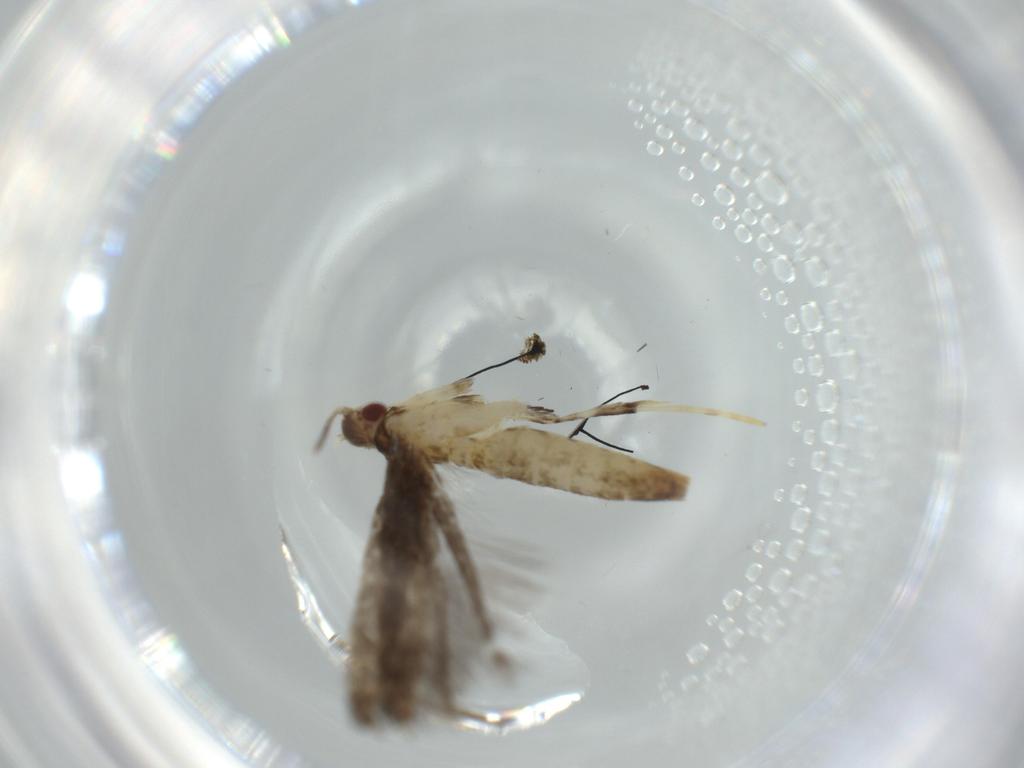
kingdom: Animalia
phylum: Arthropoda
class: Insecta
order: Lepidoptera
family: Gracillariidae
